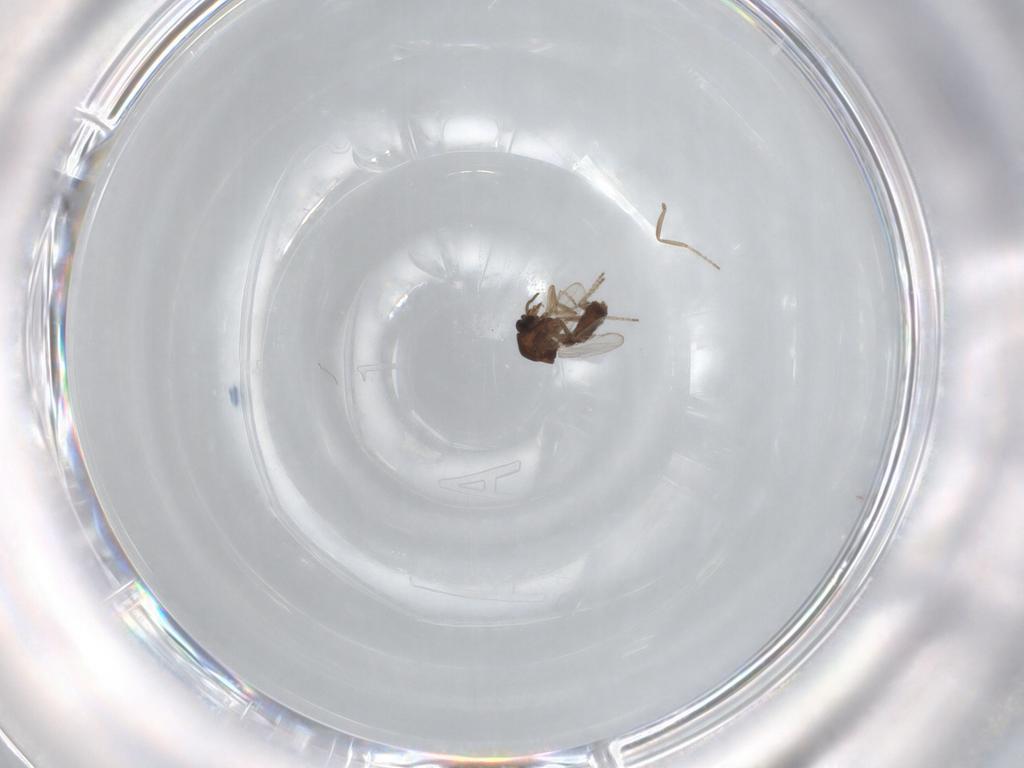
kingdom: Animalia
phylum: Arthropoda
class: Insecta
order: Diptera
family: Ceratopogonidae
